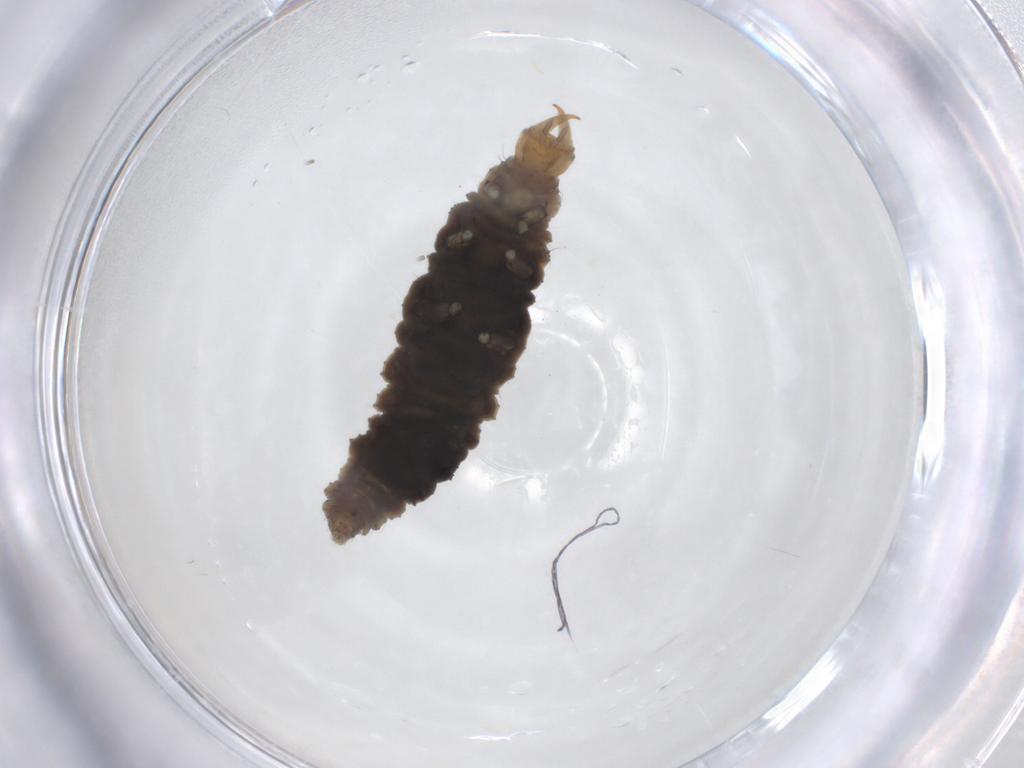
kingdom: Animalia
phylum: Arthropoda
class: Insecta
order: Neuroptera
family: Hemerobiidae
